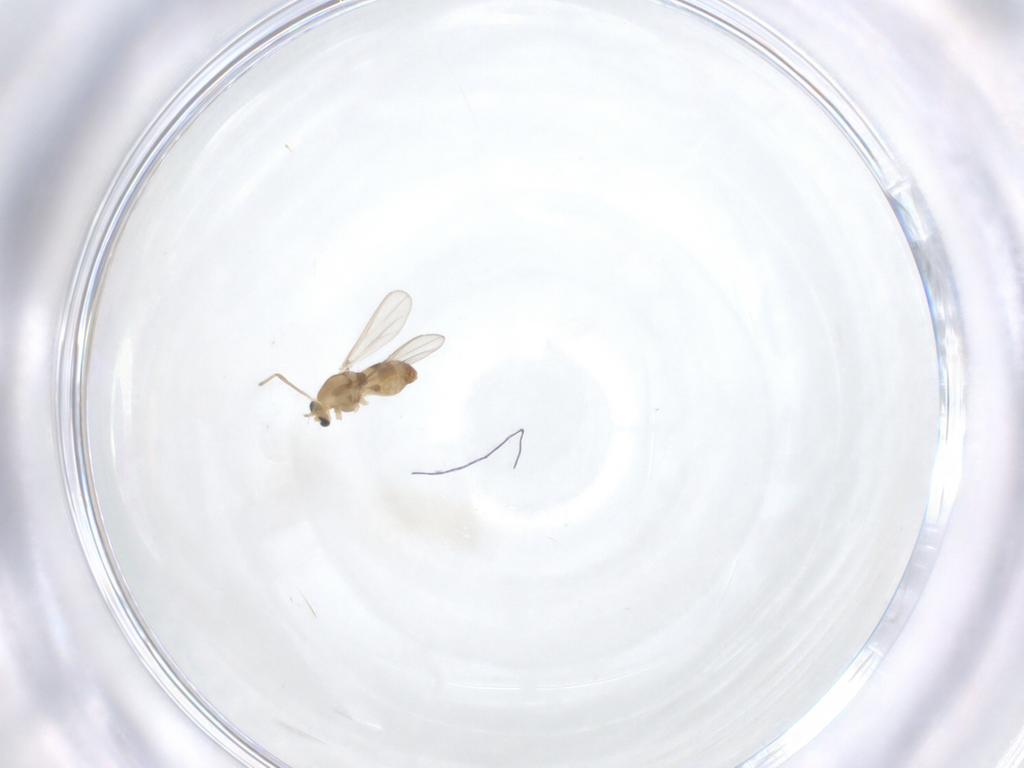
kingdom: Animalia
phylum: Arthropoda
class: Insecta
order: Diptera
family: Chironomidae
